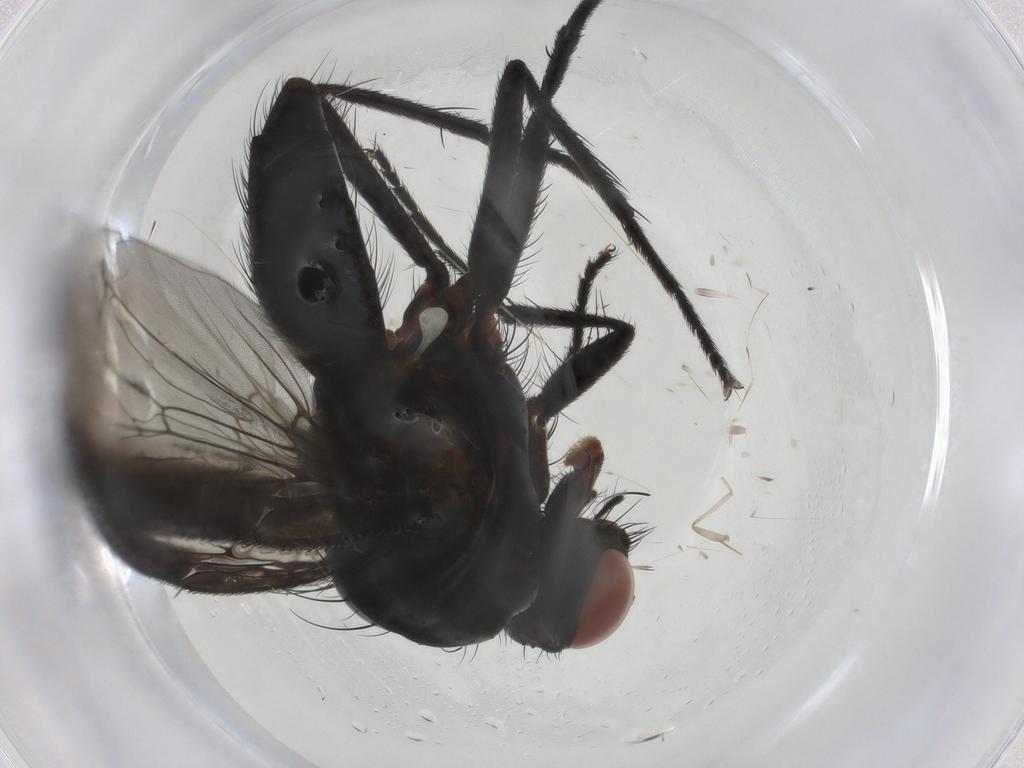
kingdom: Animalia
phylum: Arthropoda
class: Insecta
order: Diptera
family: Anthomyiidae
